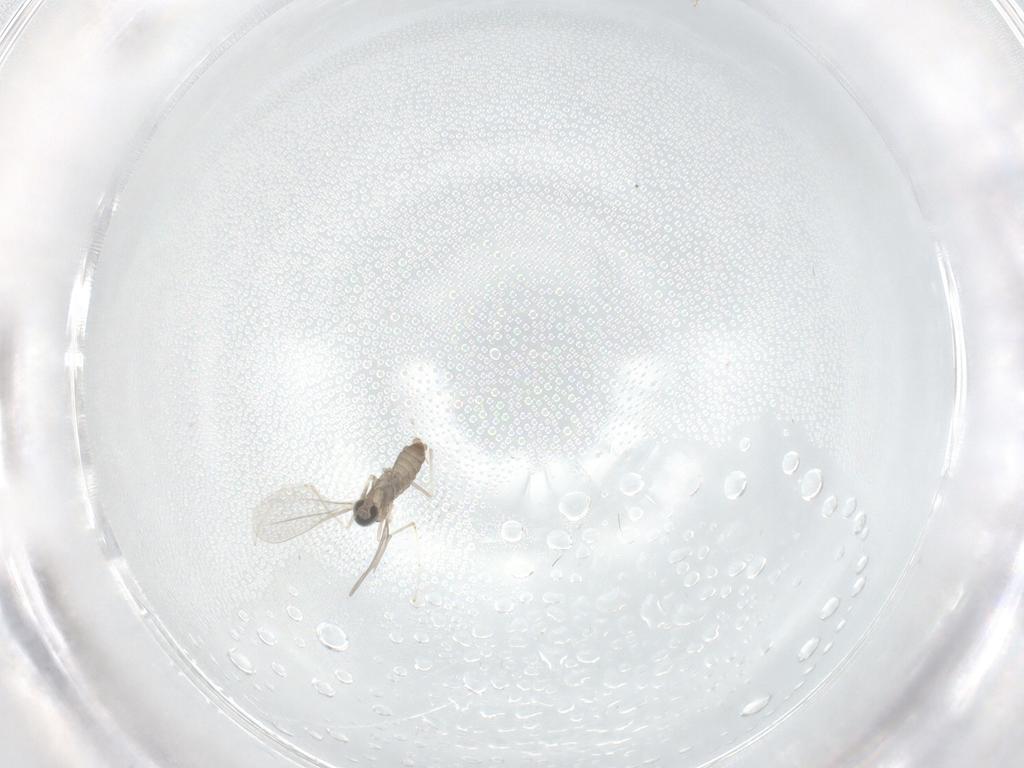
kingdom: Animalia
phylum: Arthropoda
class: Insecta
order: Diptera
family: Cecidomyiidae
